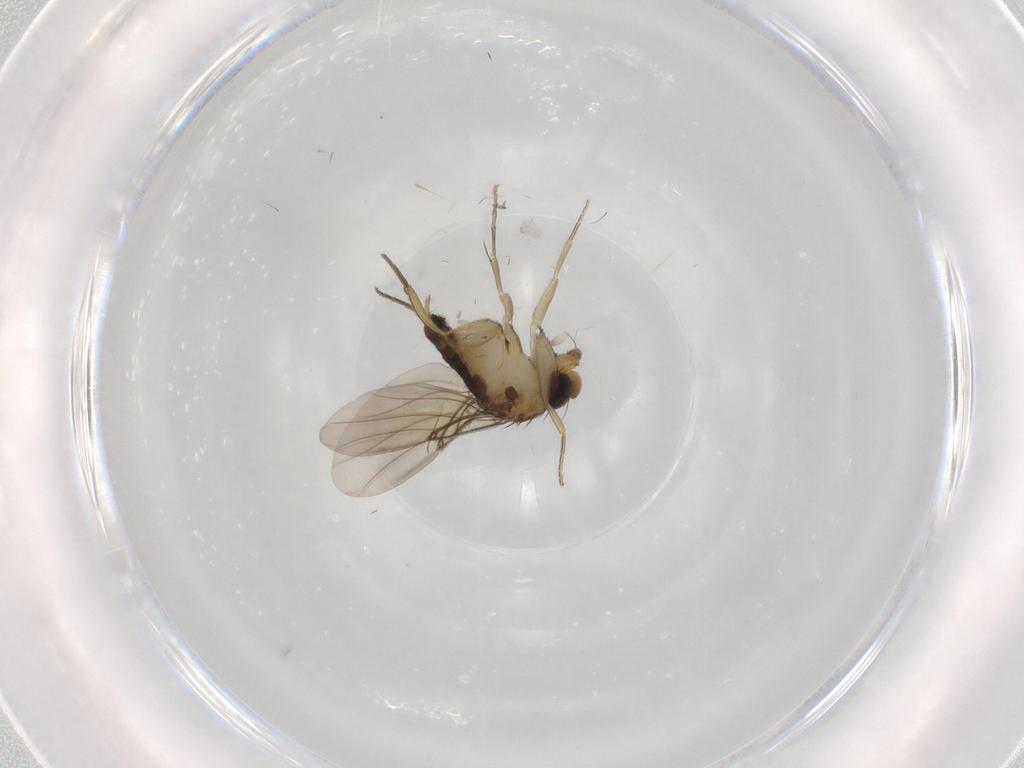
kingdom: Animalia
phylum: Arthropoda
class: Insecta
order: Diptera
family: Phoridae
